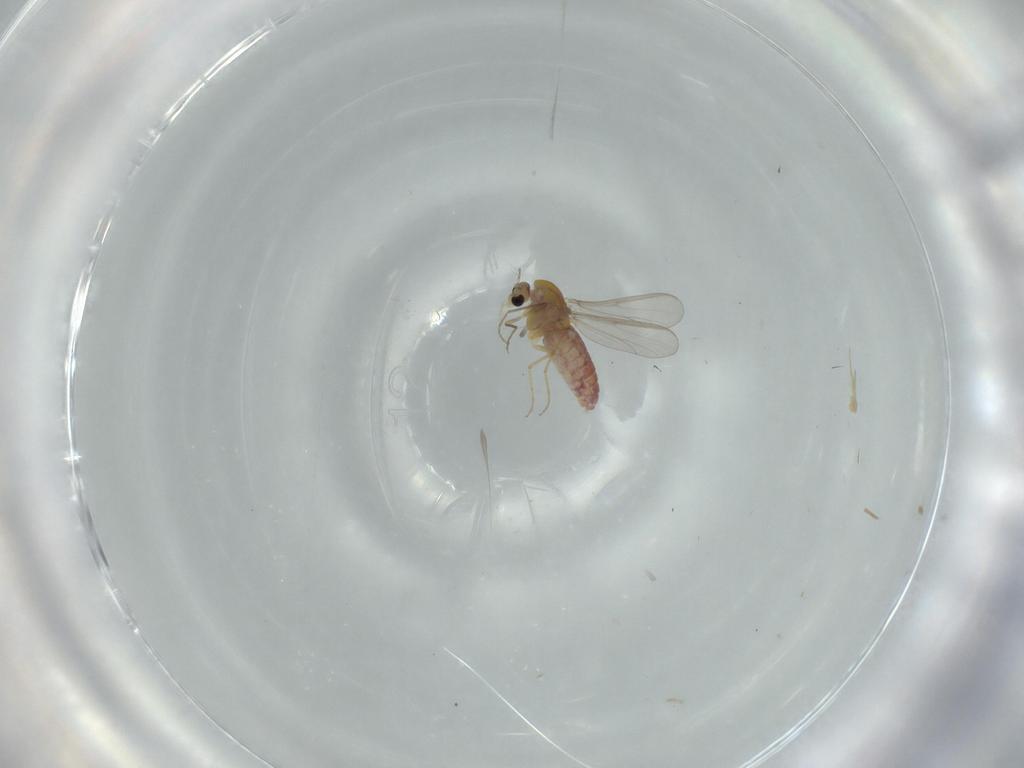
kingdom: Animalia
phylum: Arthropoda
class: Insecta
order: Diptera
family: Chironomidae
